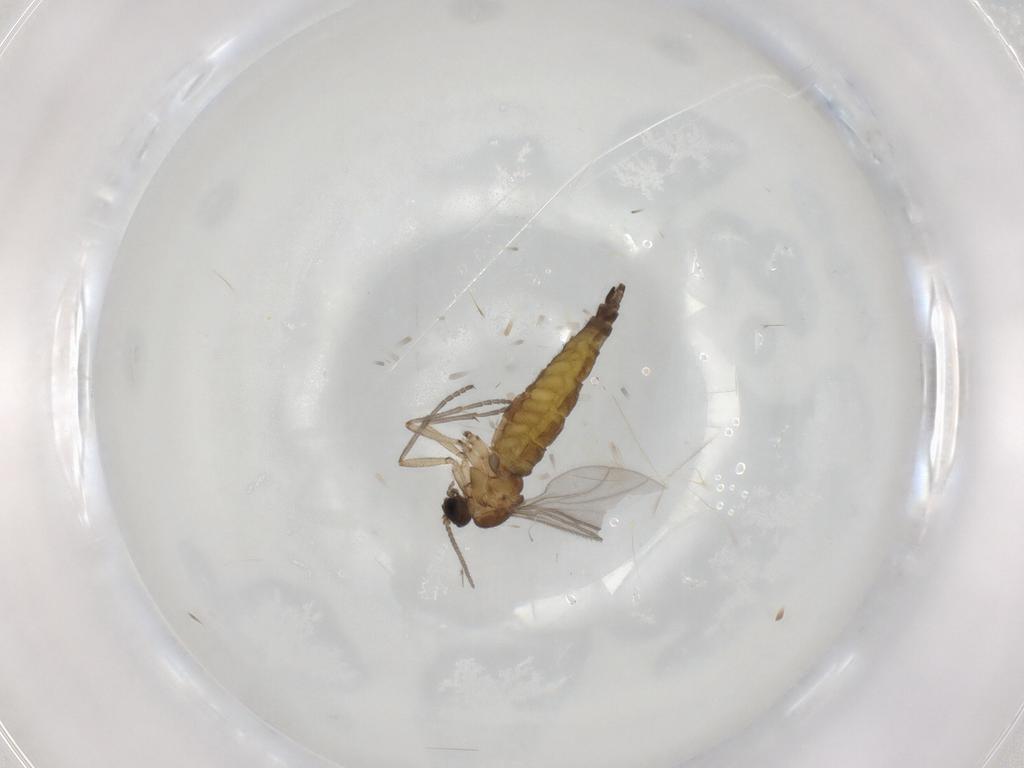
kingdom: Animalia
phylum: Arthropoda
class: Insecta
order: Diptera
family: Sciaridae
